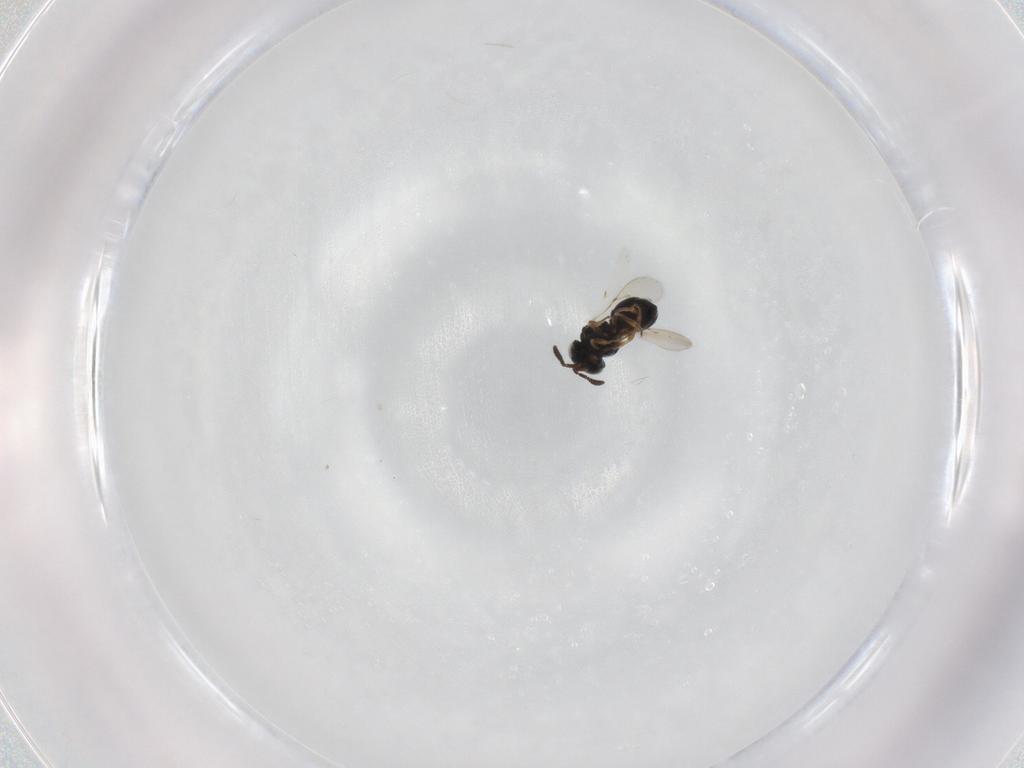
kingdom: Animalia
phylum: Arthropoda
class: Insecta
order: Hymenoptera
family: Scelionidae
